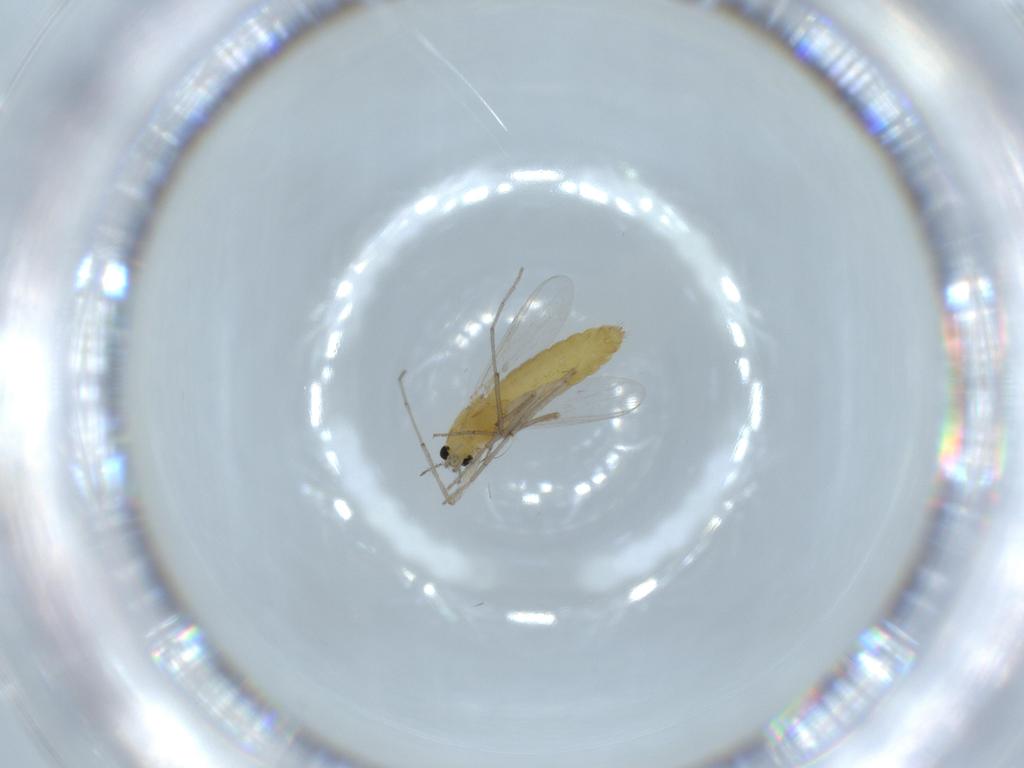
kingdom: Animalia
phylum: Arthropoda
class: Insecta
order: Diptera
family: Chironomidae
